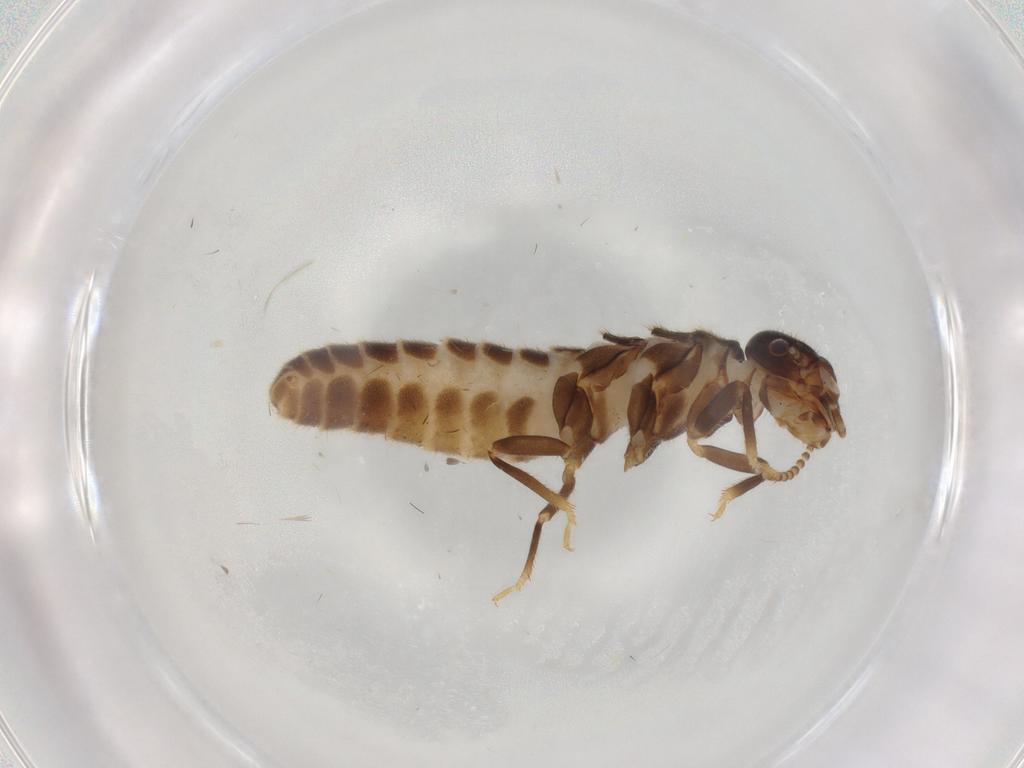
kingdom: Animalia
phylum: Arthropoda
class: Insecta
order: Blattodea
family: Termitidae
